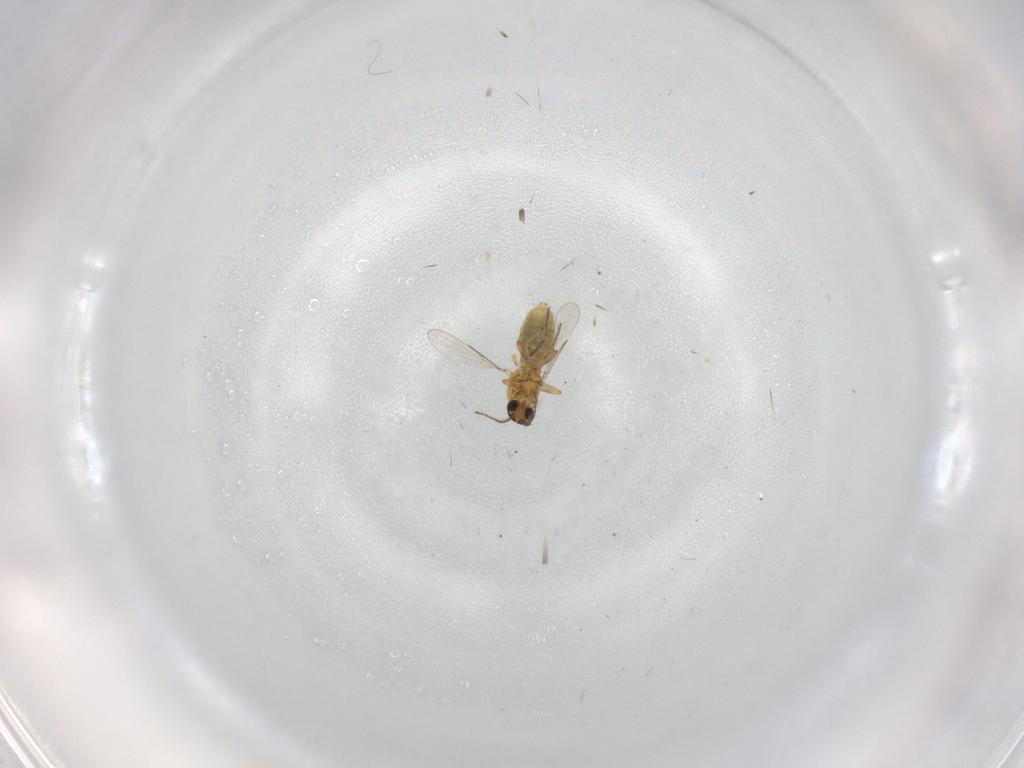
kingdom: Animalia
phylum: Arthropoda
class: Insecta
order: Diptera
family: Ceratopogonidae
